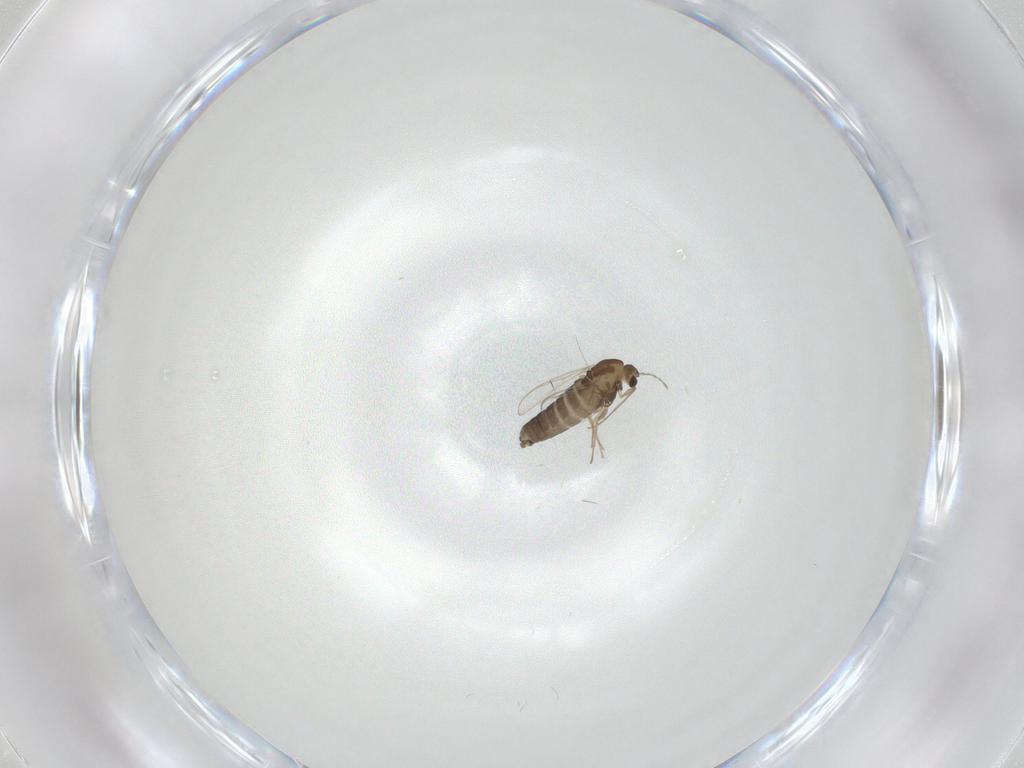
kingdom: Animalia
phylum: Arthropoda
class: Insecta
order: Diptera
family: Chironomidae
